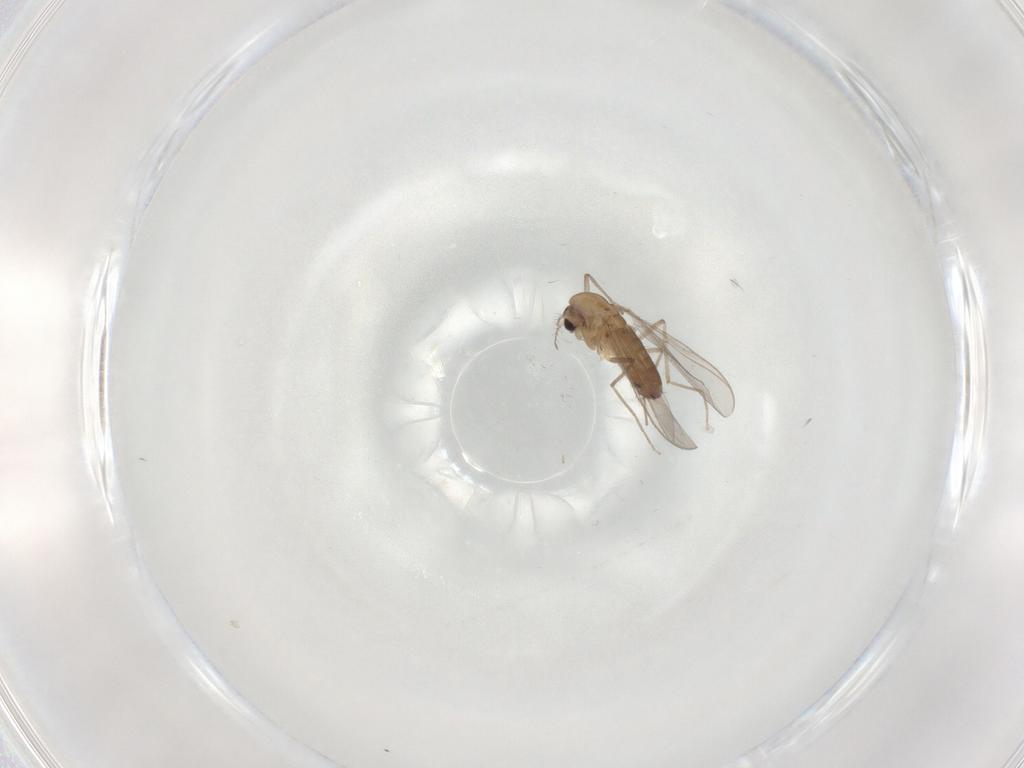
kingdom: Animalia
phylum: Arthropoda
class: Insecta
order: Diptera
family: Chironomidae
